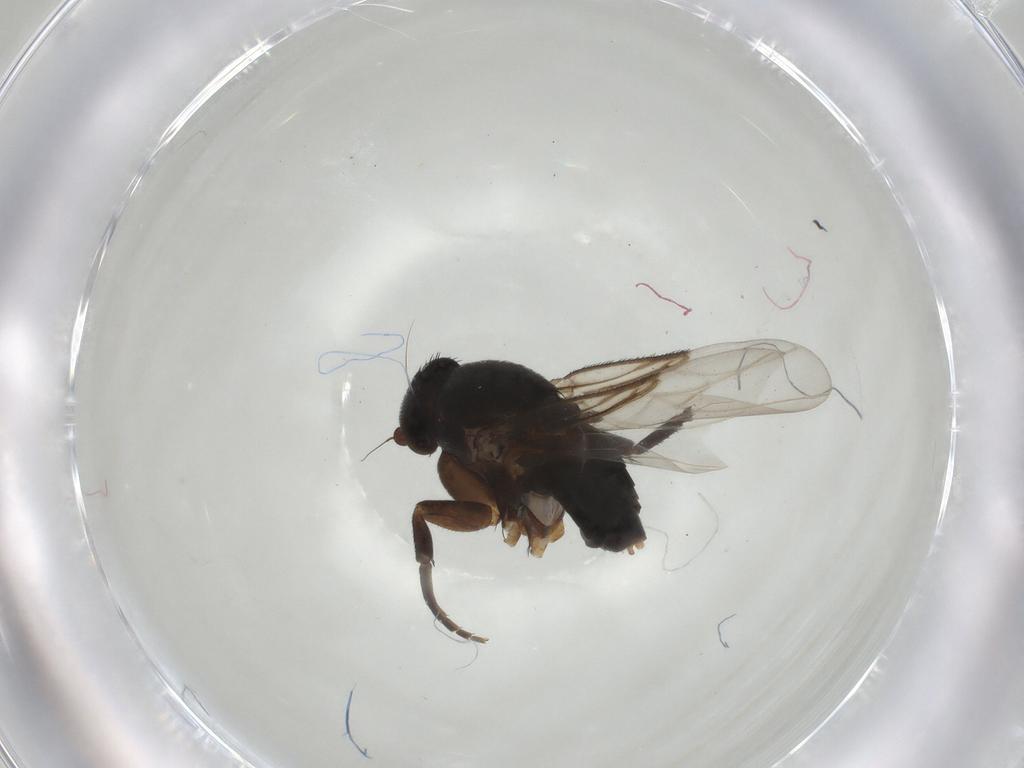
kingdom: Animalia
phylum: Arthropoda
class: Insecta
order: Diptera
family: Phoridae
